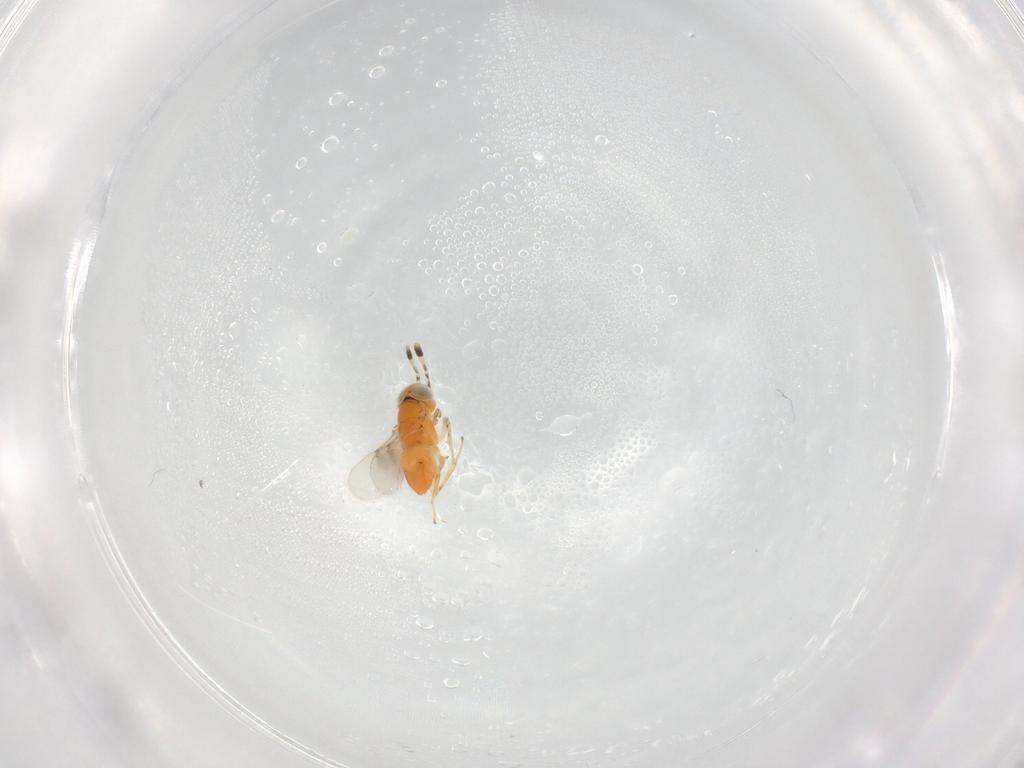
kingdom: Animalia
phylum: Arthropoda
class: Insecta
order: Hymenoptera
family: Encyrtidae
